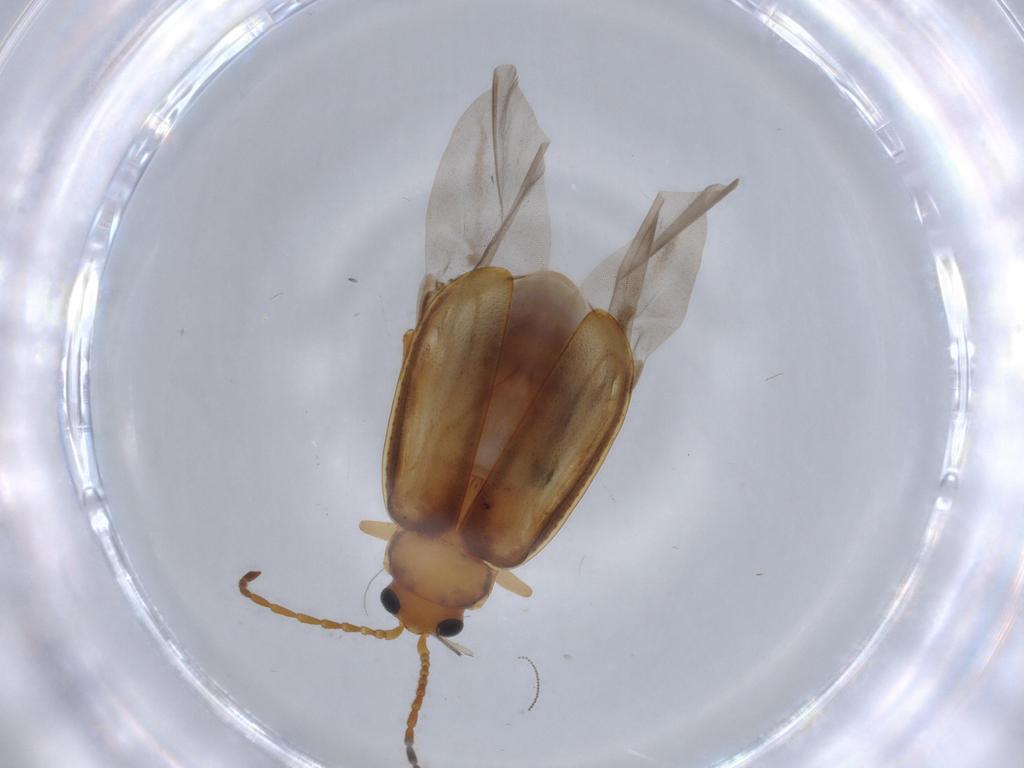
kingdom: Animalia
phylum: Arthropoda
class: Insecta
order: Coleoptera
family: Chrysomelidae
